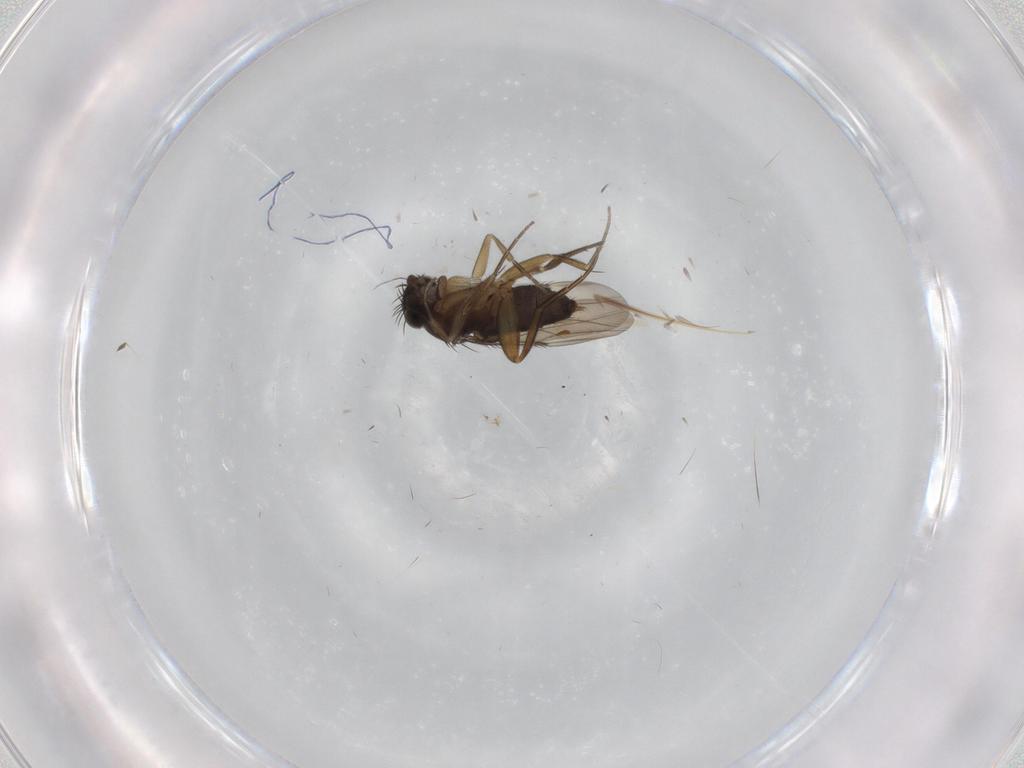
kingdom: Animalia
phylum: Arthropoda
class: Insecta
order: Diptera
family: Phoridae
